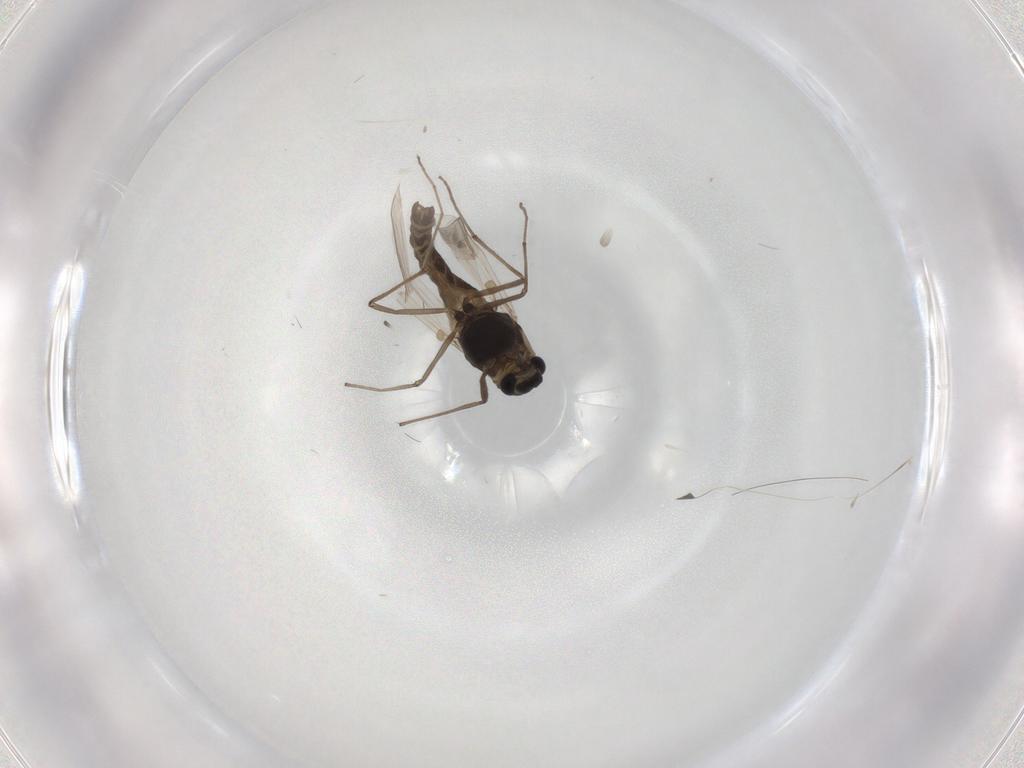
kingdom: Animalia
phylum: Arthropoda
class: Insecta
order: Diptera
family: Chironomidae
